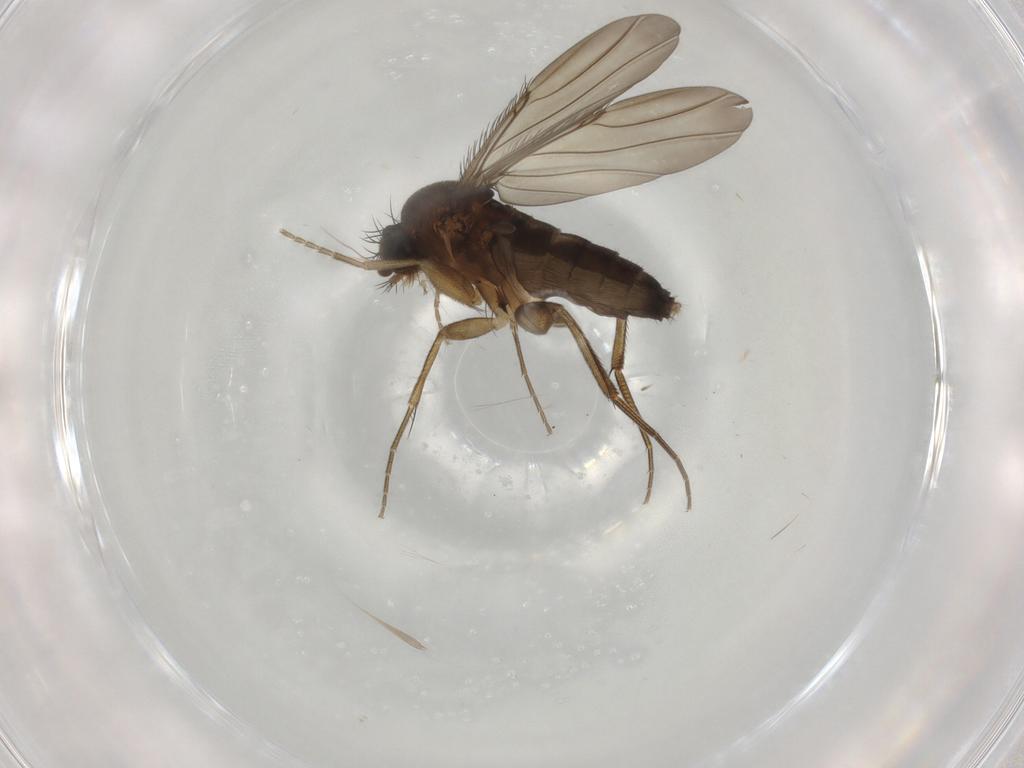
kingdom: Animalia
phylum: Arthropoda
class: Insecta
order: Diptera
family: Phoridae
